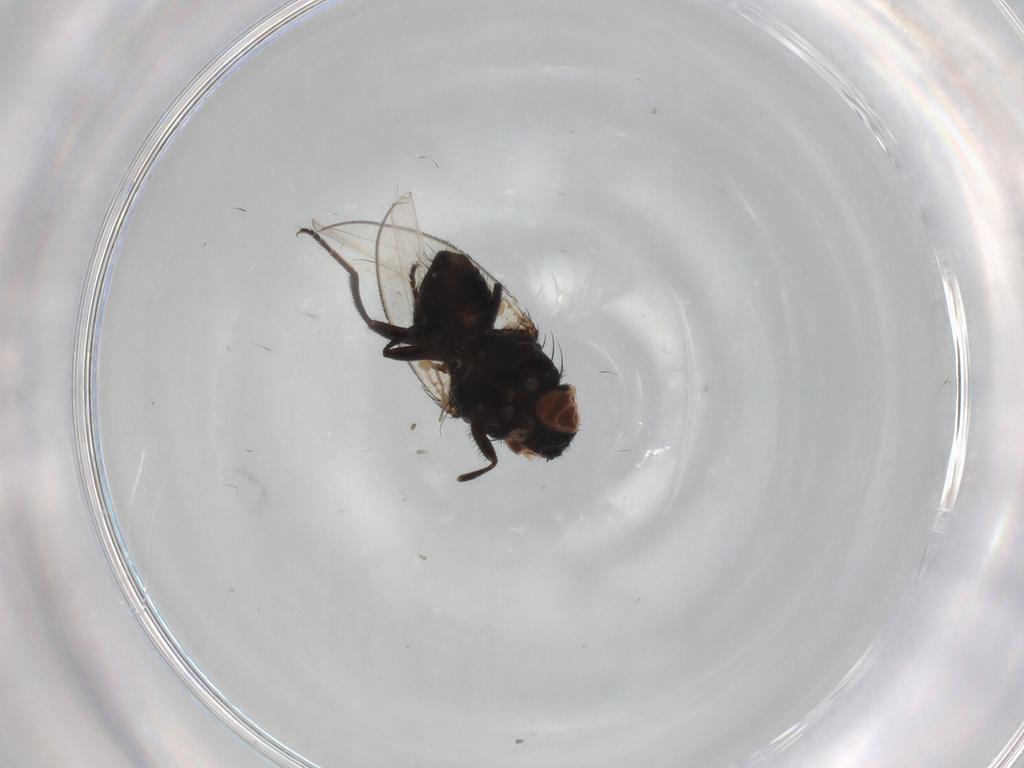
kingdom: Animalia
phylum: Arthropoda
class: Insecta
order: Diptera
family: Milichiidae
